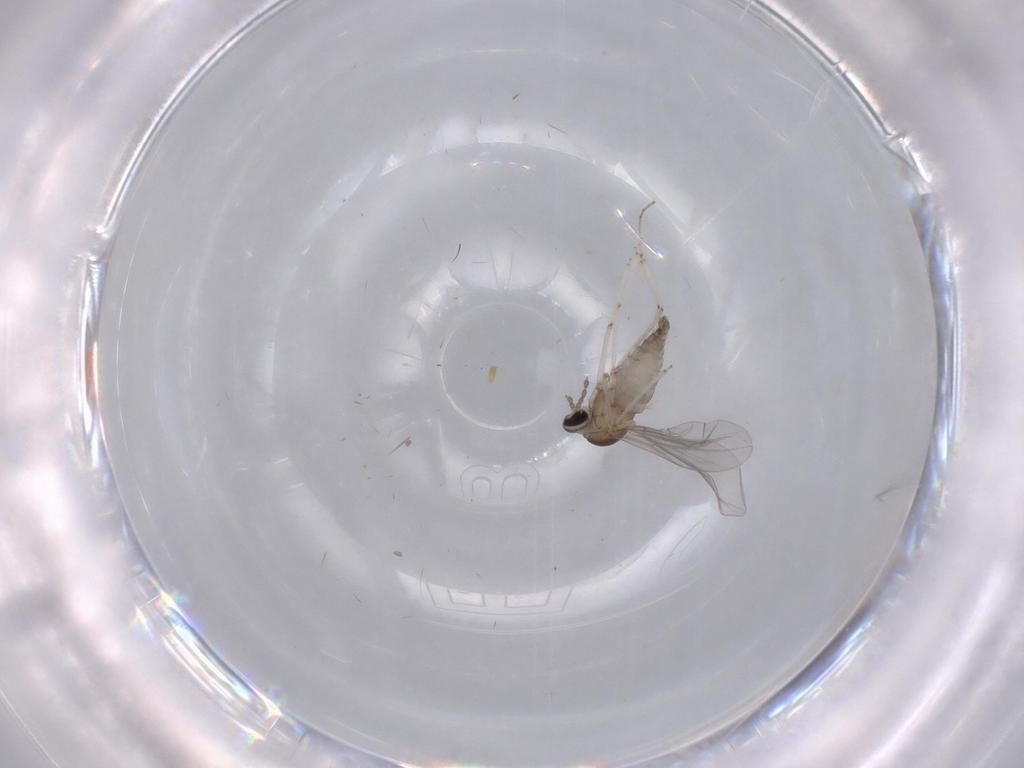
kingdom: Animalia
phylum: Arthropoda
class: Insecta
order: Diptera
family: Cecidomyiidae
